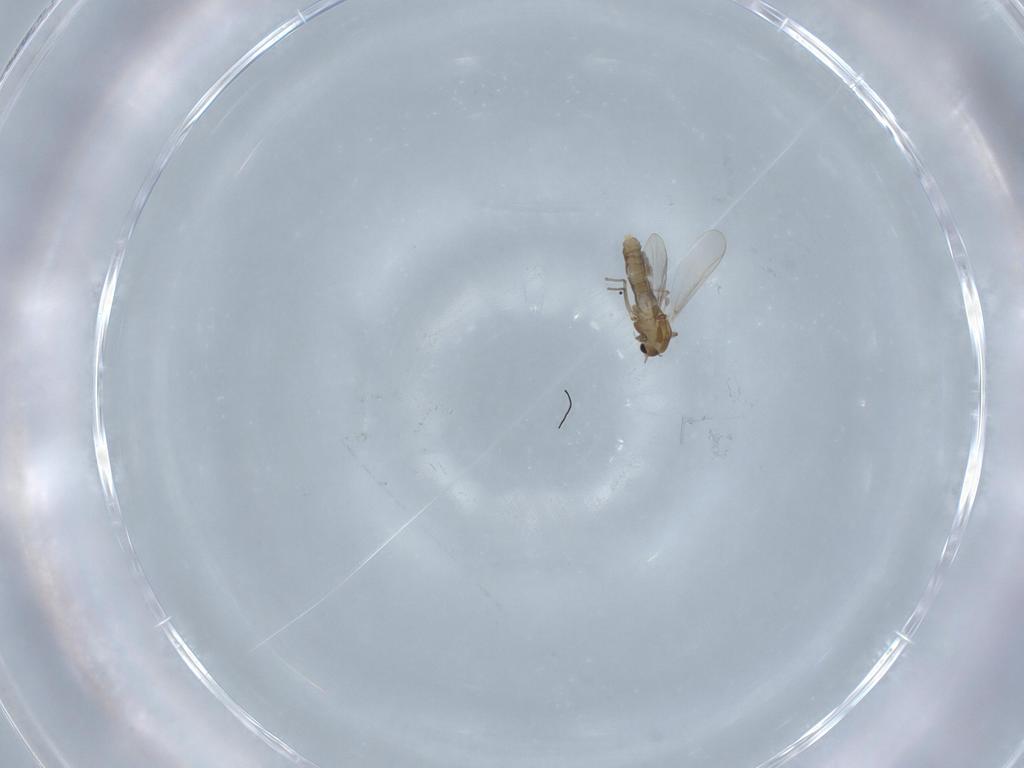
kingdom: Animalia
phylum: Arthropoda
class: Insecta
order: Diptera
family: Chironomidae
